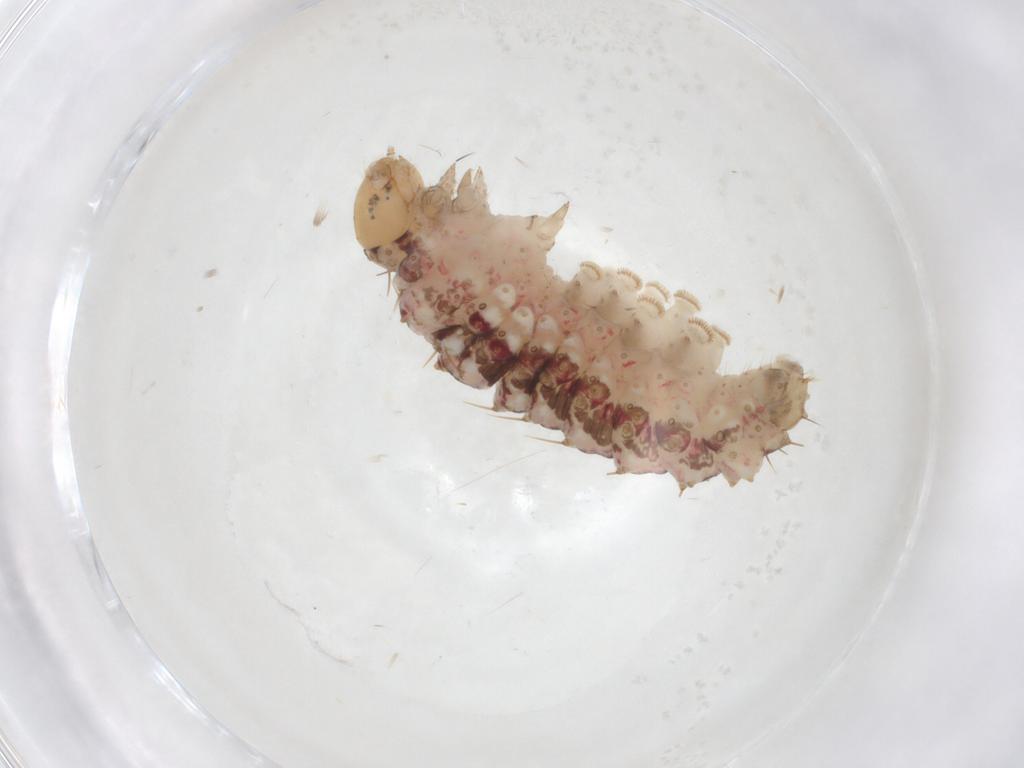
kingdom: Animalia
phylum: Arthropoda
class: Insecta
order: Lepidoptera
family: Noctuidae
